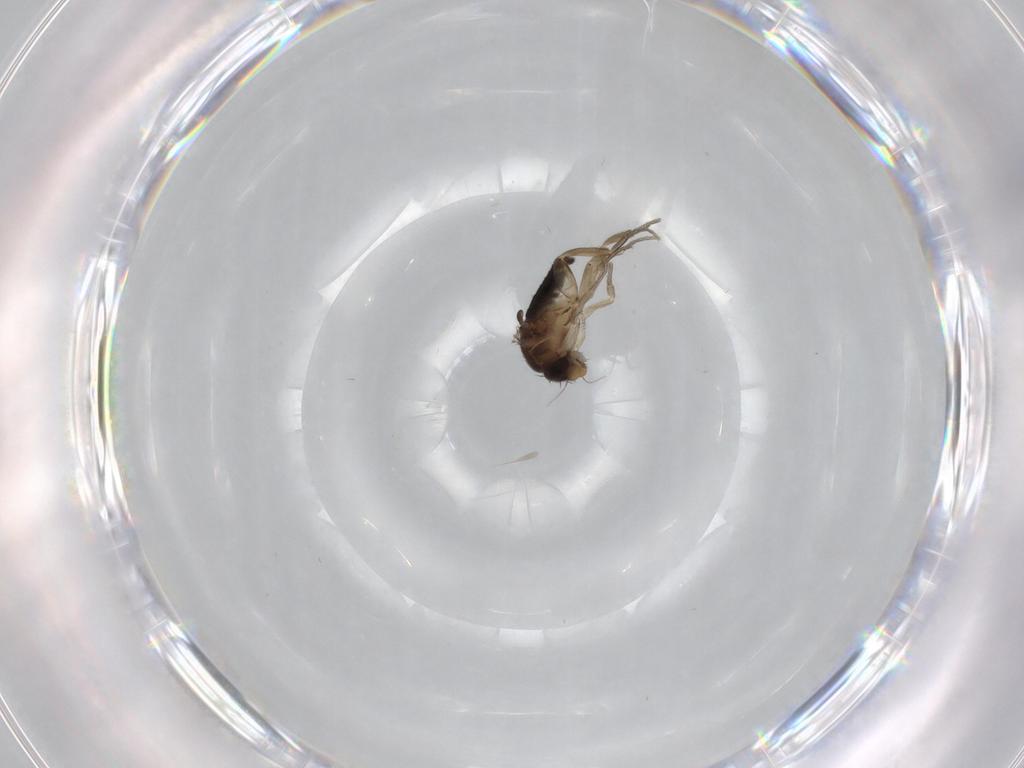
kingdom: Animalia
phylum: Arthropoda
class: Insecta
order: Diptera
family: Phoridae
